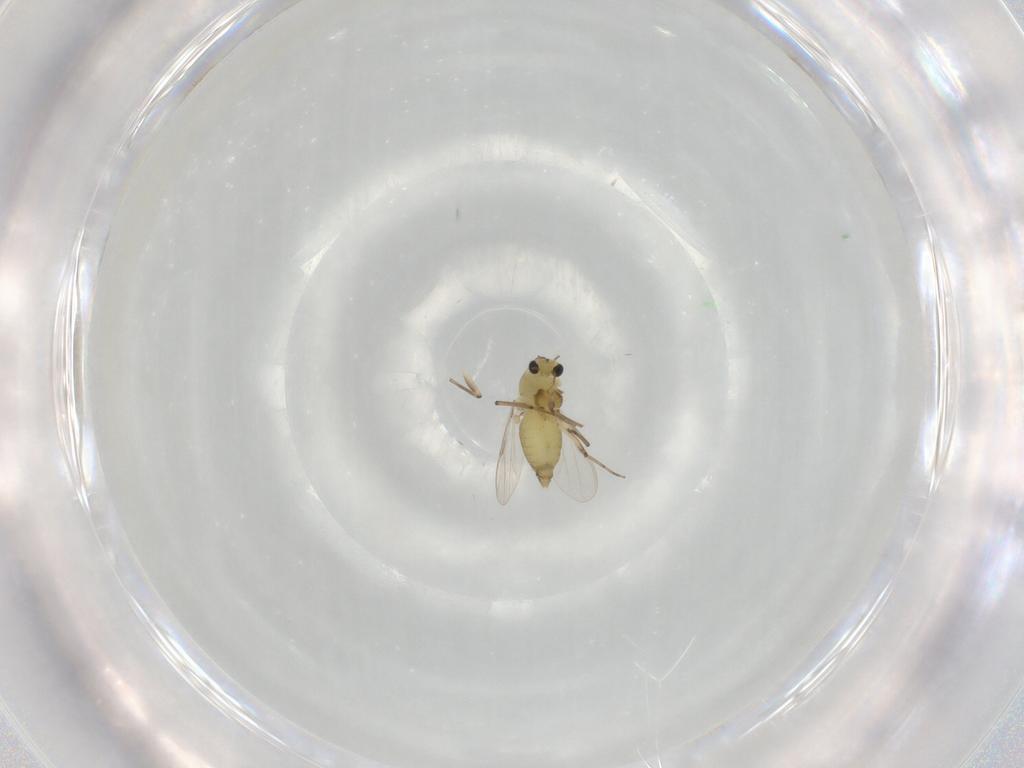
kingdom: Animalia
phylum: Arthropoda
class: Insecta
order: Diptera
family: Chironomidae
